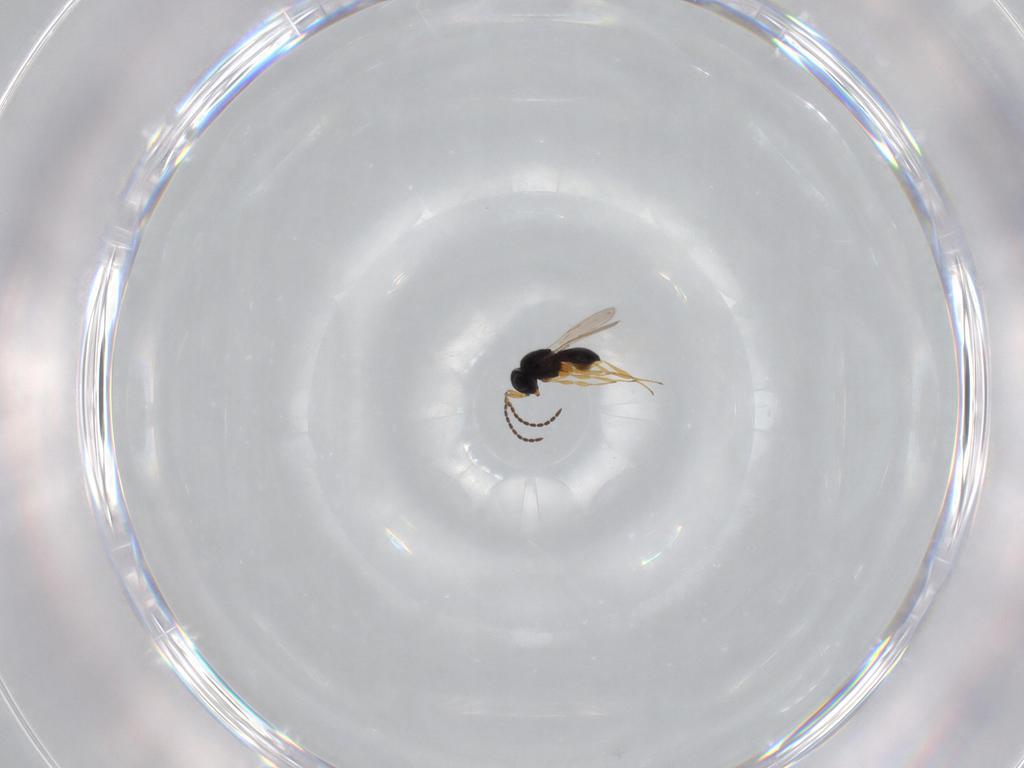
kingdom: Animalia
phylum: Arthropoda
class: Insecta
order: Hymenoptera
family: Scelionidae
